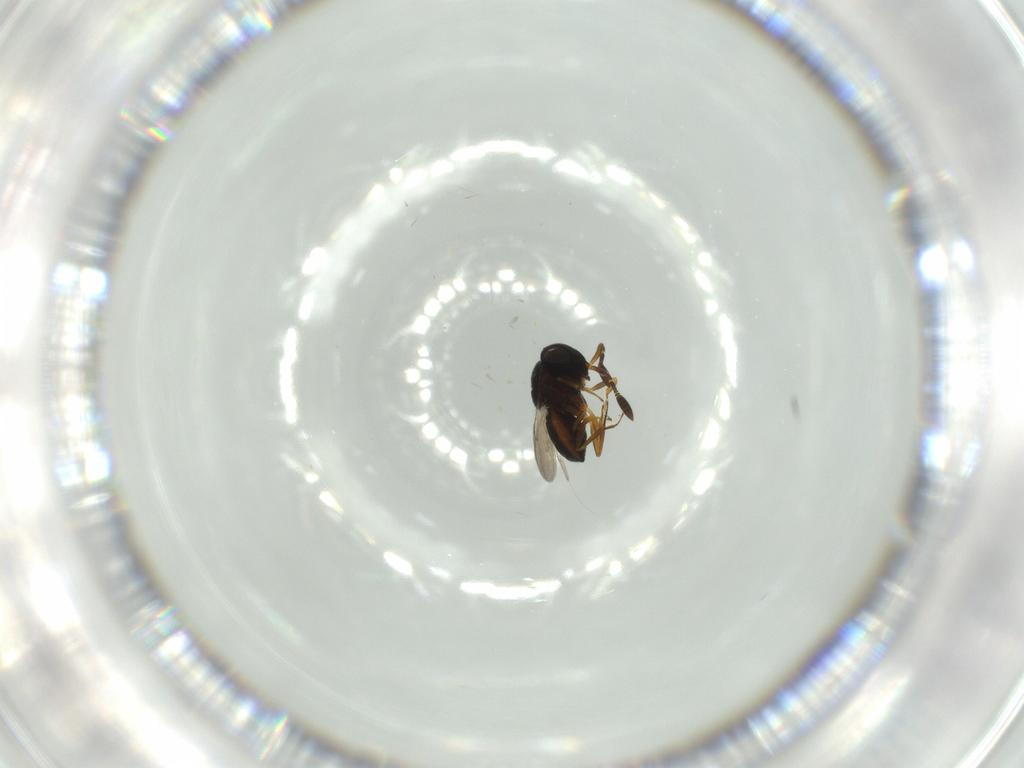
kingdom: Animalia
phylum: Arthropoda
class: Insecta
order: Hymenoptera
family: Scelionidae
